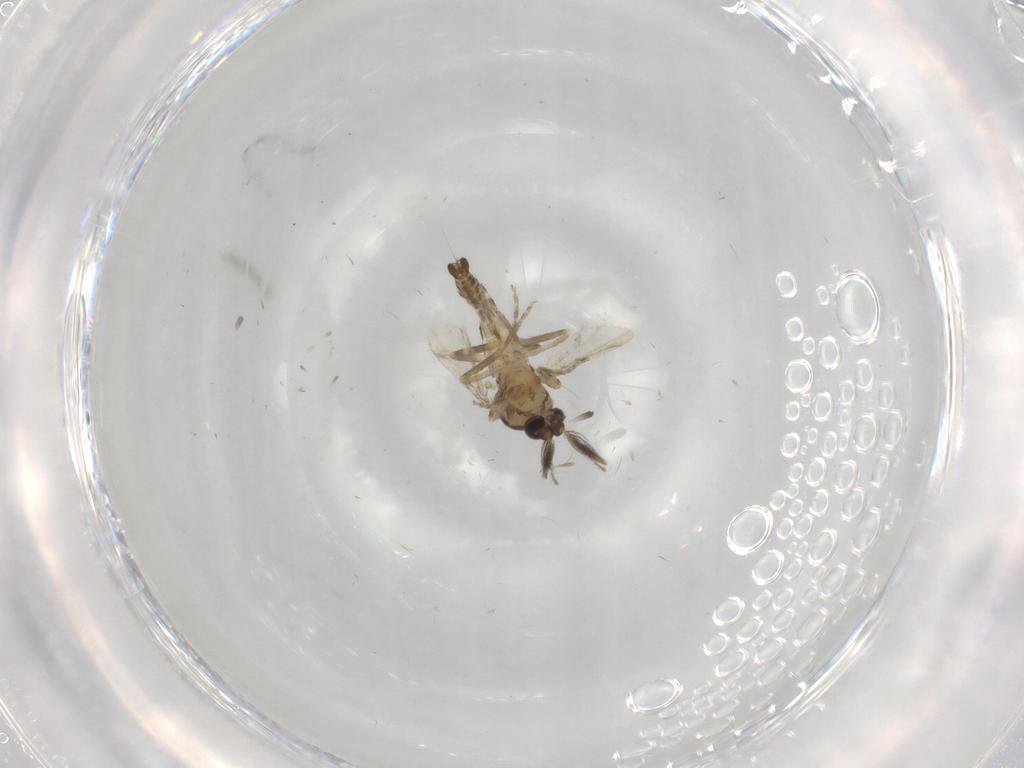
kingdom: Animalia
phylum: Arthropoda
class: Insecta
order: Diptera
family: Ceratopogonidae
